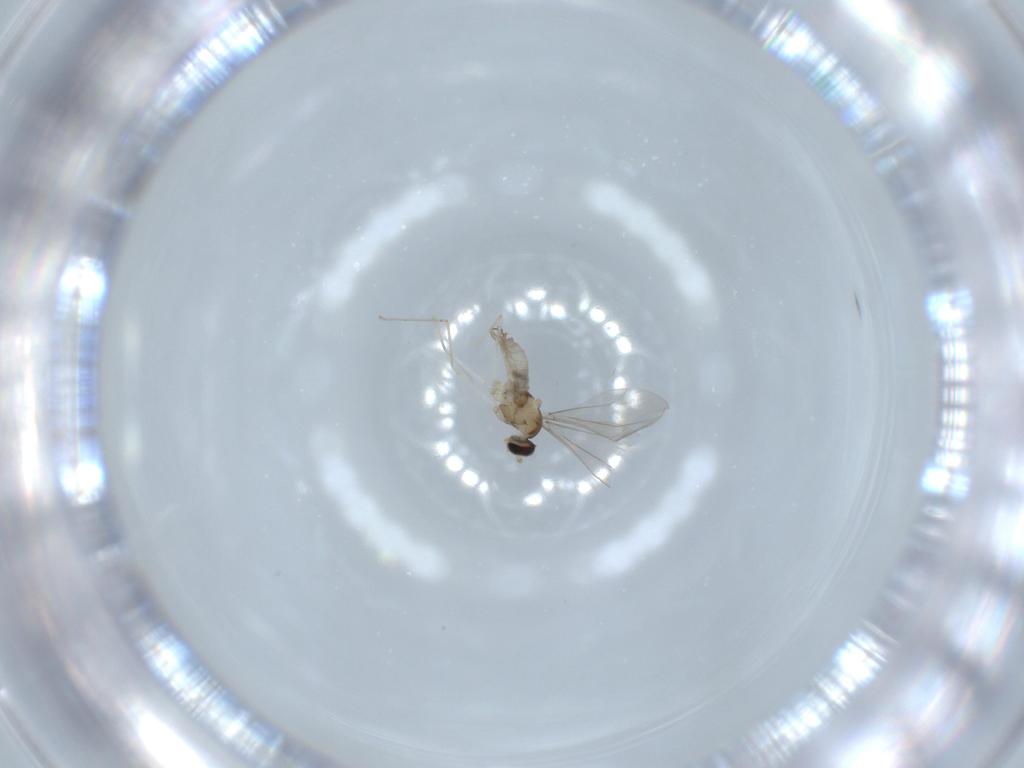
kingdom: Animalia
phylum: Arthropoda
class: Insecta
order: Diptera
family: Cecidomyiidae
